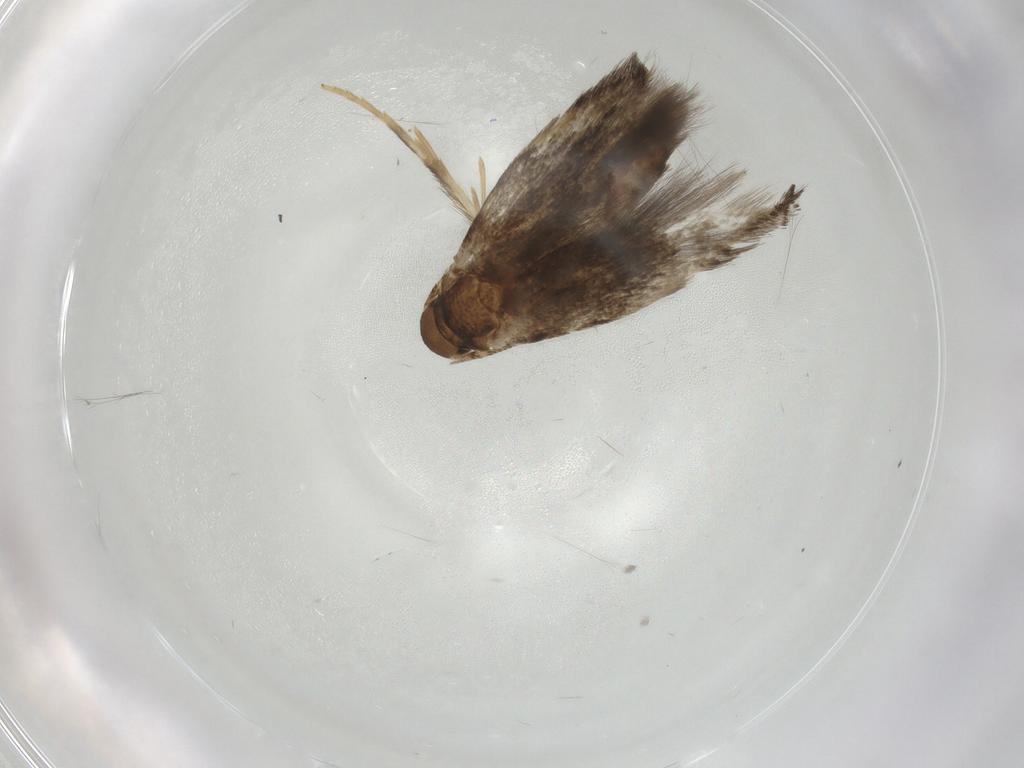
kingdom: Animalia
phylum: Arthropoda
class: Insecta
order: Lepidoptera
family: Elachistidae
